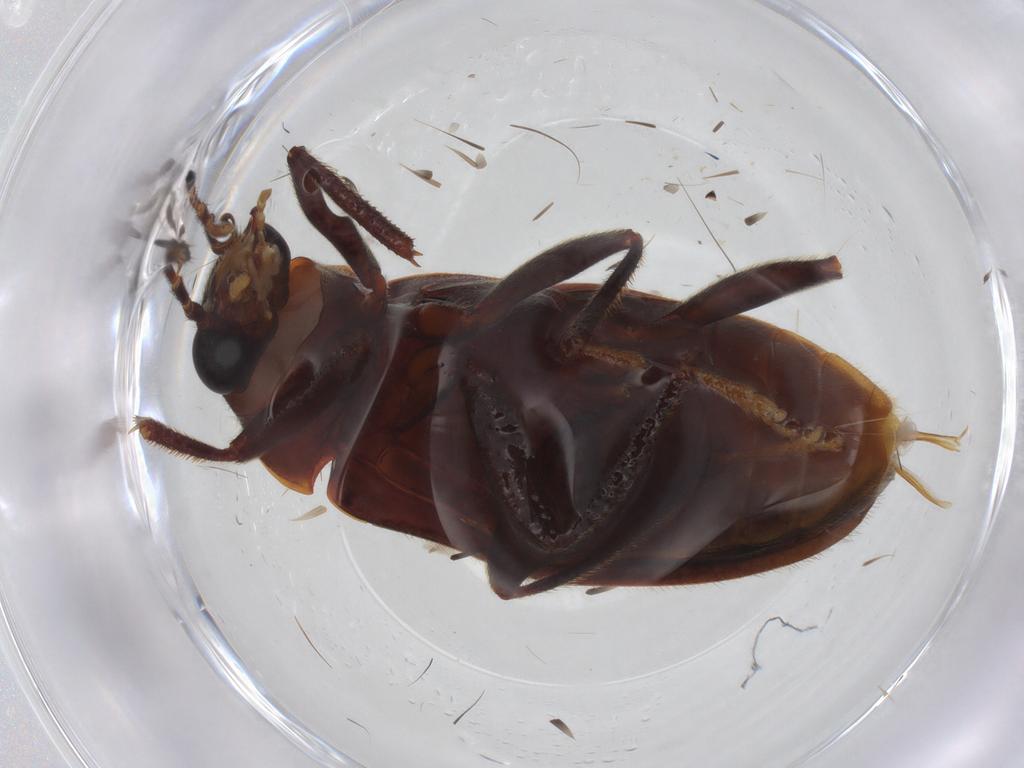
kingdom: Animalia
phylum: Arthropoda
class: Insecta
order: Coleoptera
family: Ptilodactylidae
